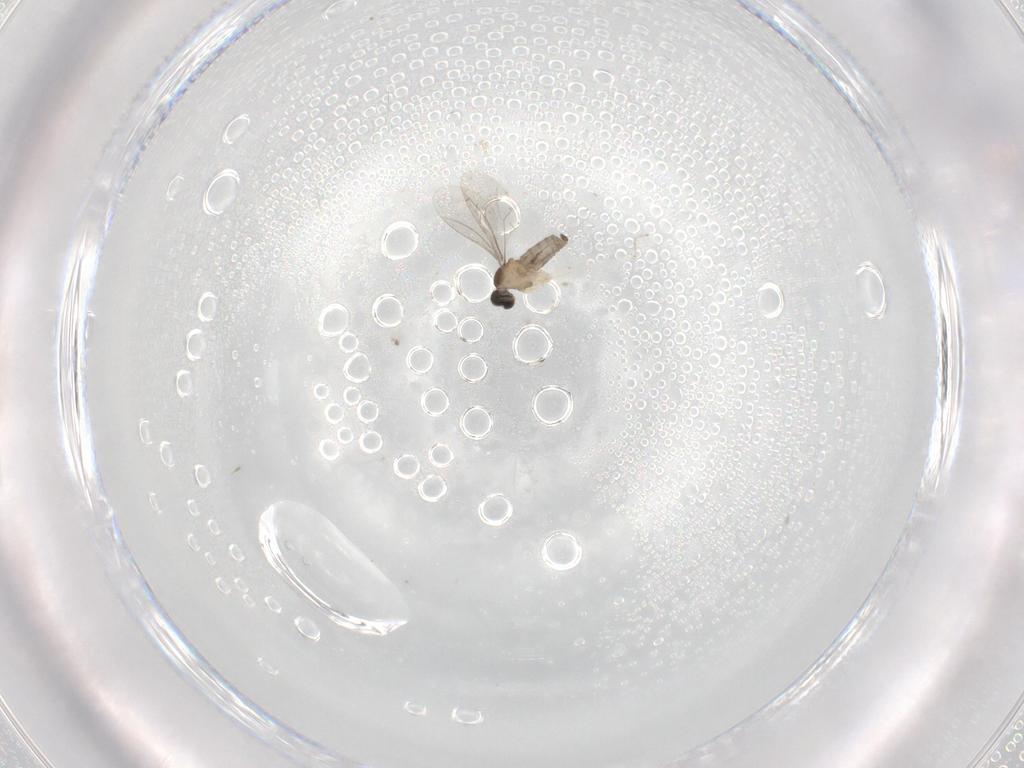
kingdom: Animalia
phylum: Arthropoda
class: Insecta
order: Diptera
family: Cecidomyiidae
